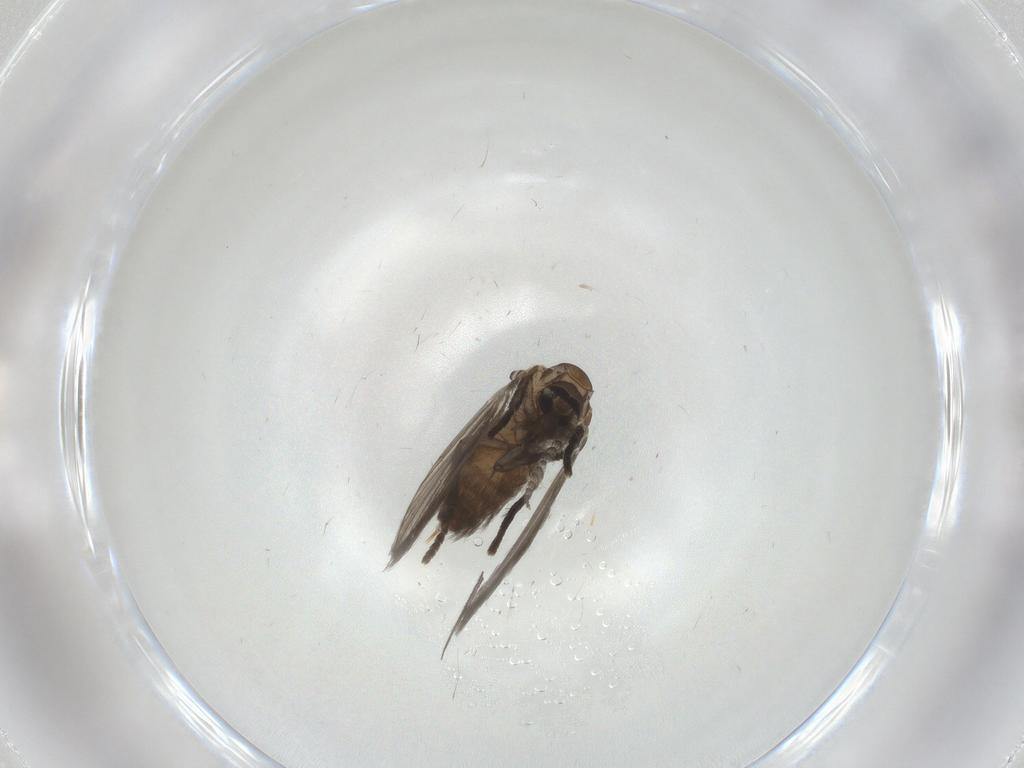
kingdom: Animalia
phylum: Arthropoda
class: Insecta
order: Diptera
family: Psychodidae
